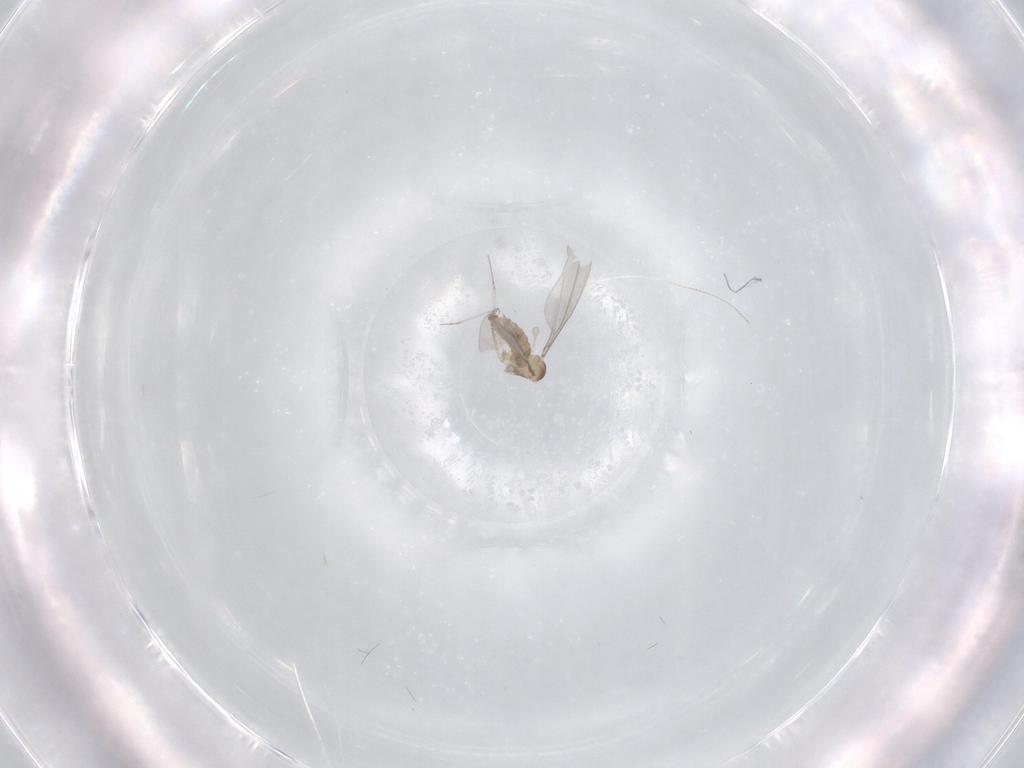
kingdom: Animalia
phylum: Arthropoda
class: Insecta
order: Diptera
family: Cecidomyiidae
